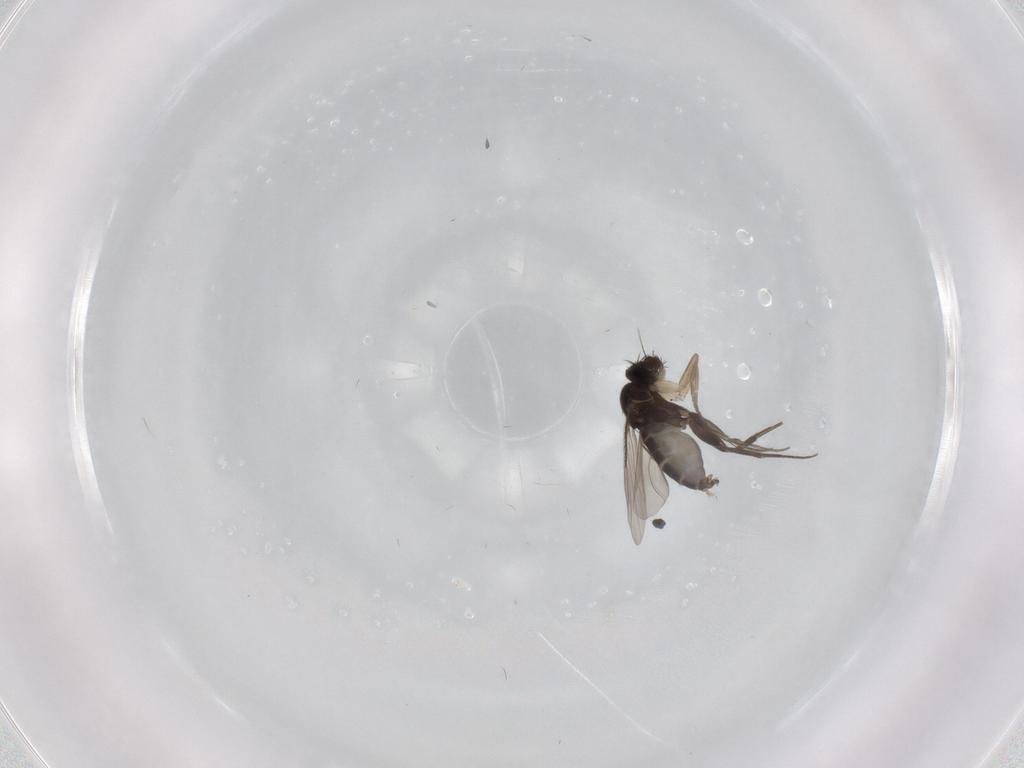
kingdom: Animalia
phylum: Arthropoda
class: Insecta
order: Diptera
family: Phoridae
